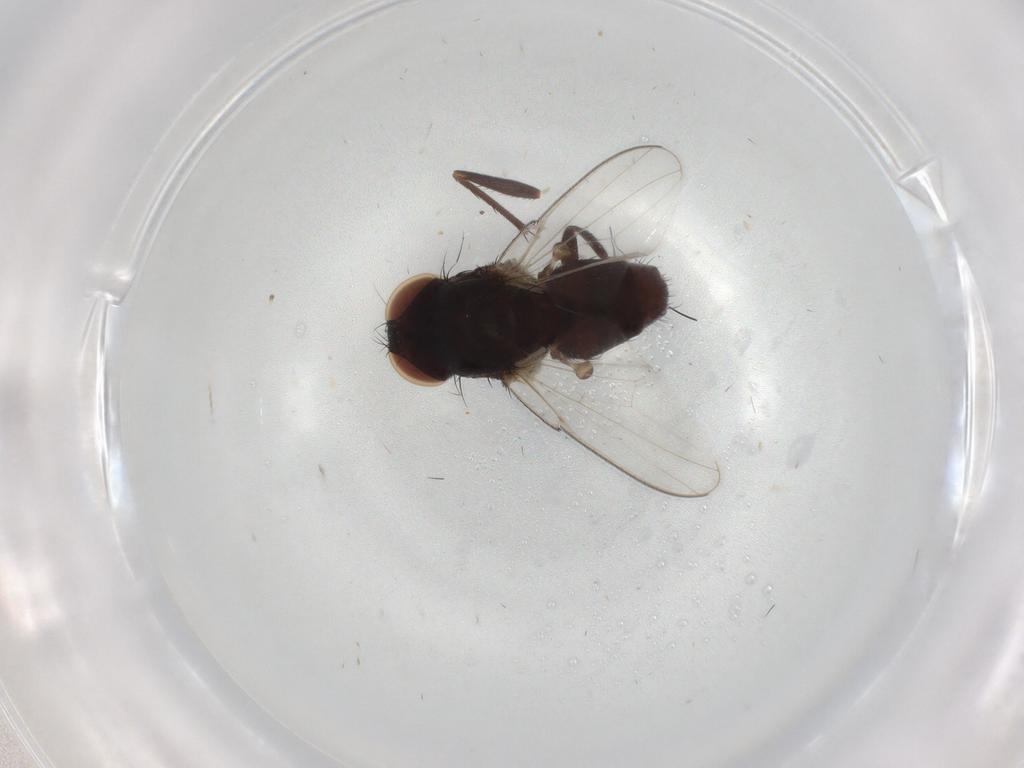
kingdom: Animalia
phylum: Arthropoda
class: Insecta
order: Diptera
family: Dolichopodidae
